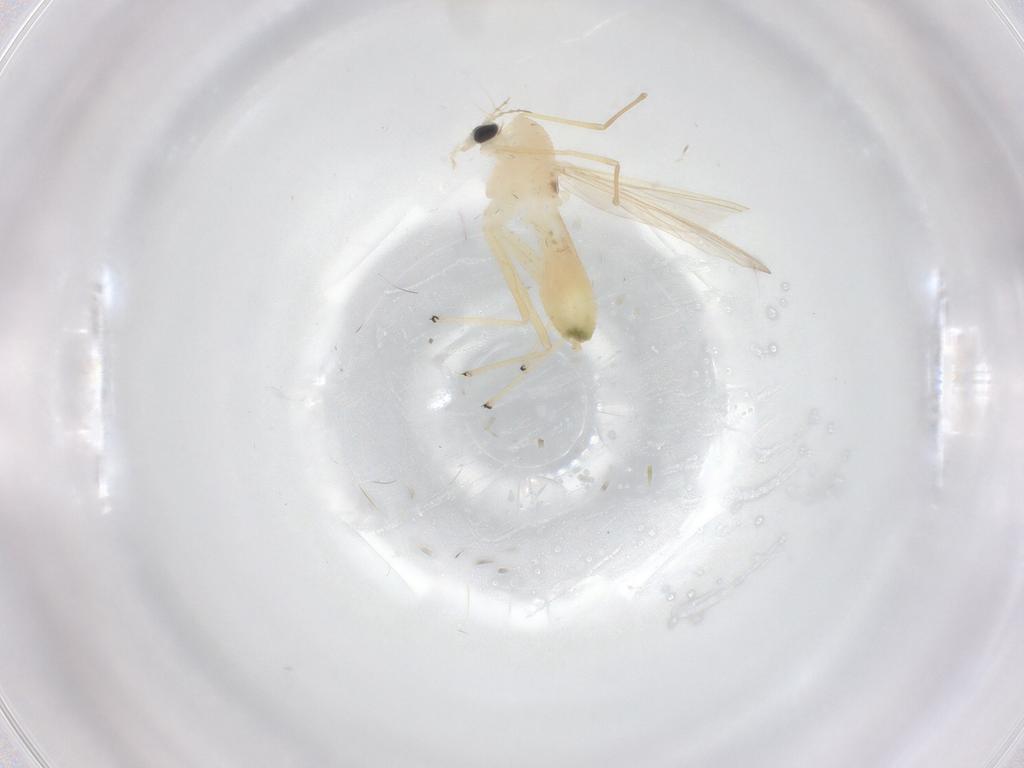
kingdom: Animalia
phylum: Arthropoda
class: Insecta
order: Diptera
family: Chironomidae
